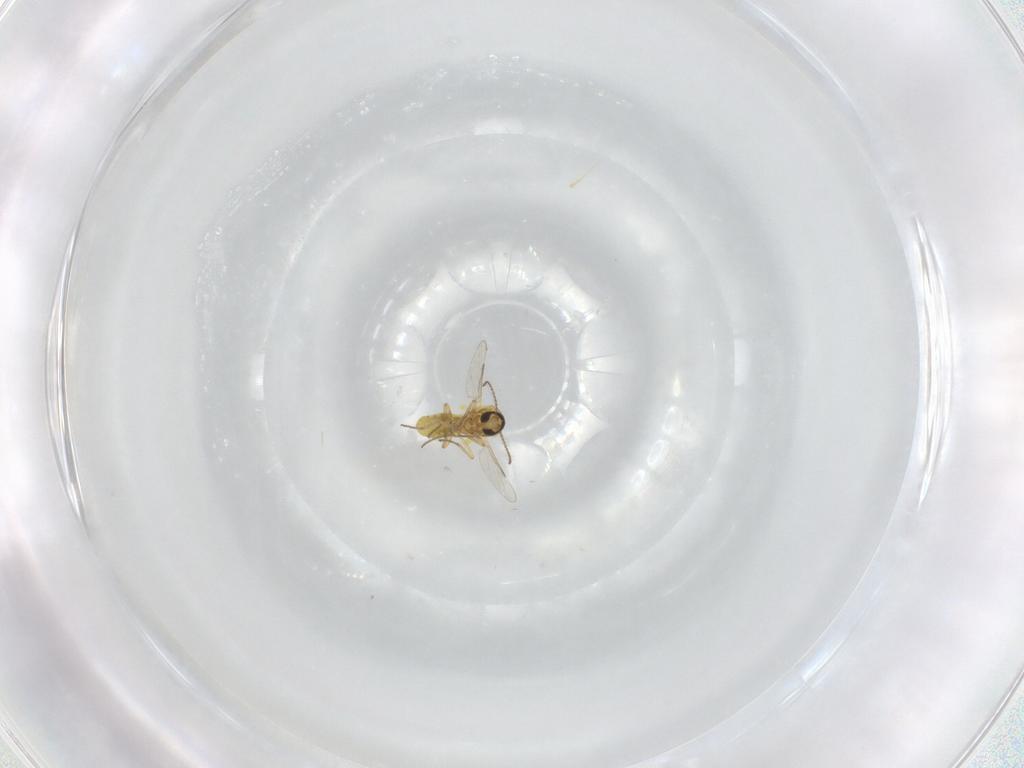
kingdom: Animalia
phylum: Arthropoda
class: Insecta
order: Diptera
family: Ceratopogonidae
